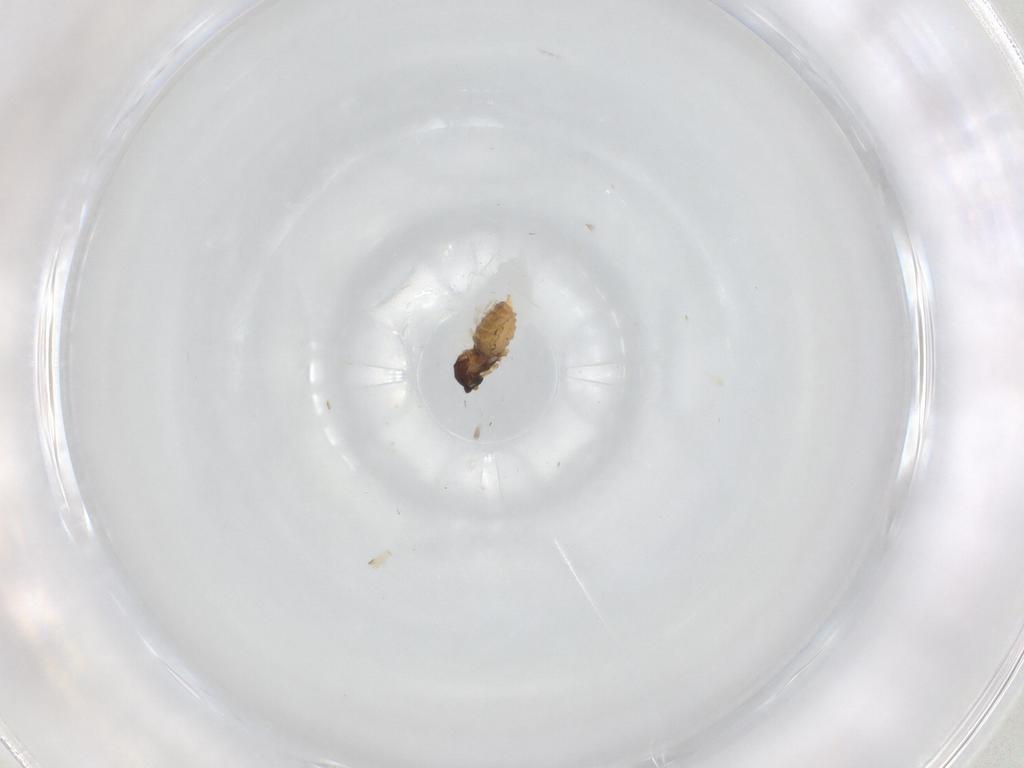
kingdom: Animalia
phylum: Arthropoda
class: Insecta
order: Diptera
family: Cecidomyiidae
